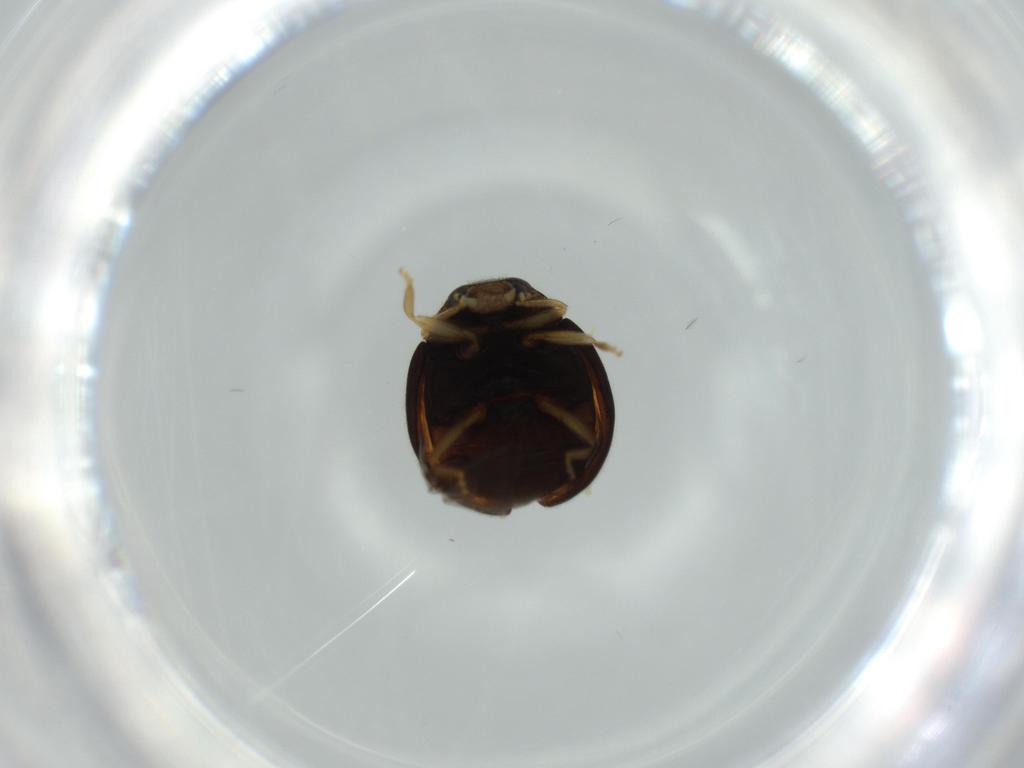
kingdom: Animalia
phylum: Arthropoda
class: Insecta
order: Coleoptera
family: Coccinellidae
